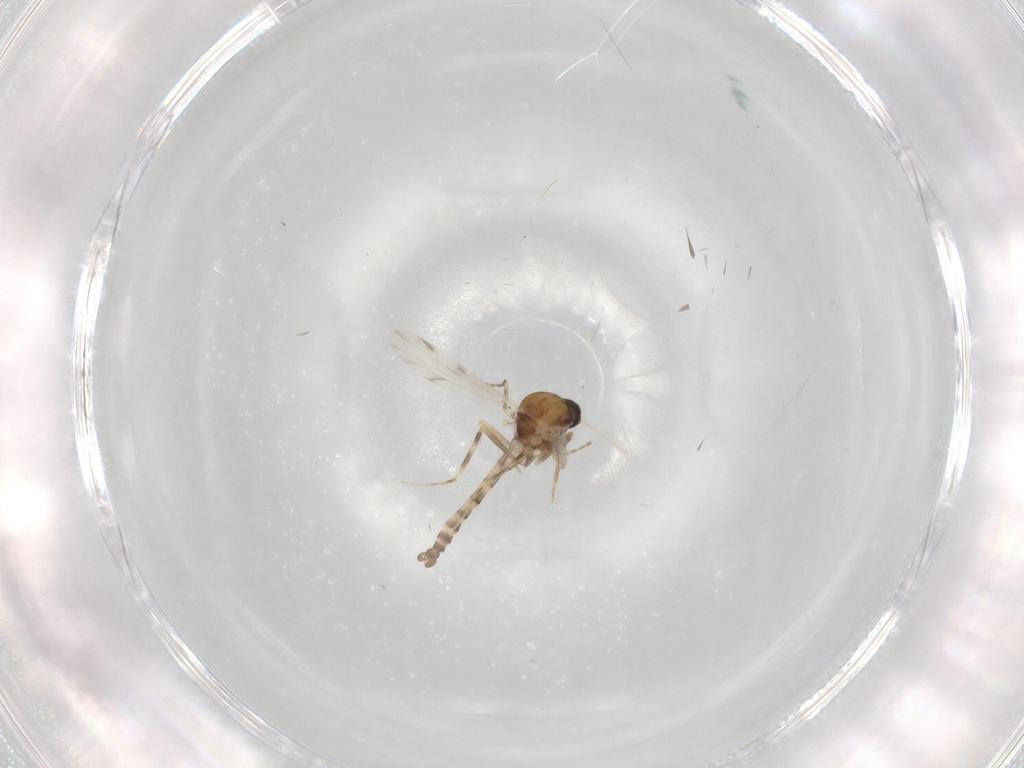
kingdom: Animalia
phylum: Arthropoda
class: Insecta
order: Diptera
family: Ceratopogonidae
